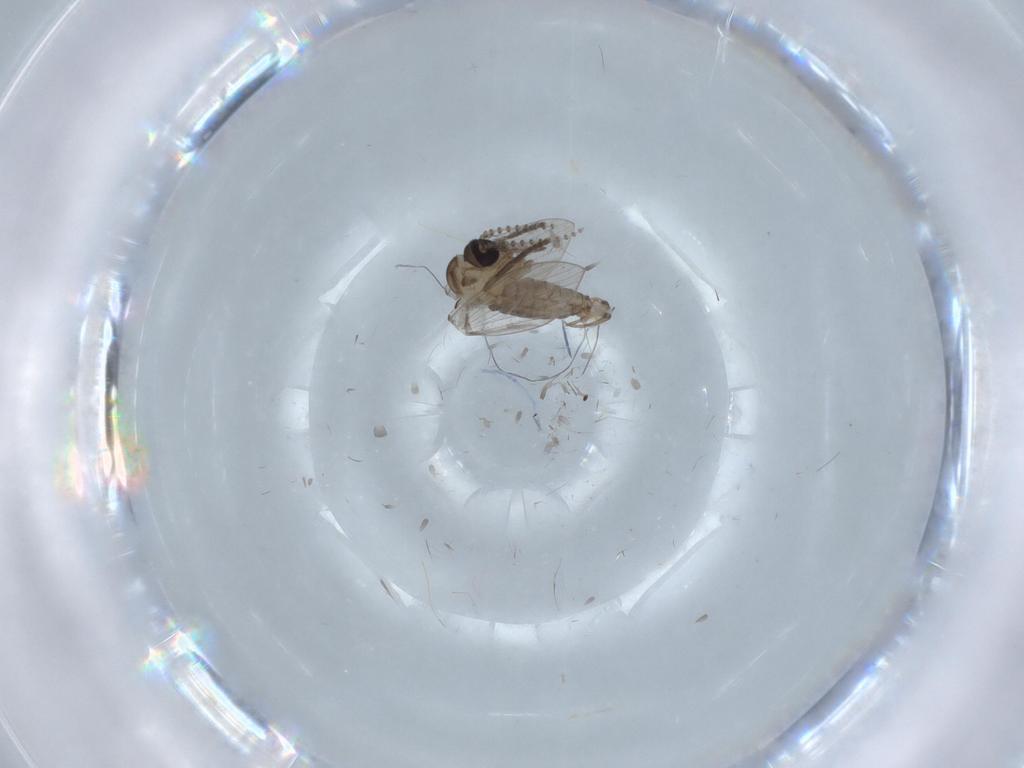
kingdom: Animalia
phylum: Arthropoda
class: Insecta
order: Diptera
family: Psychodidae
